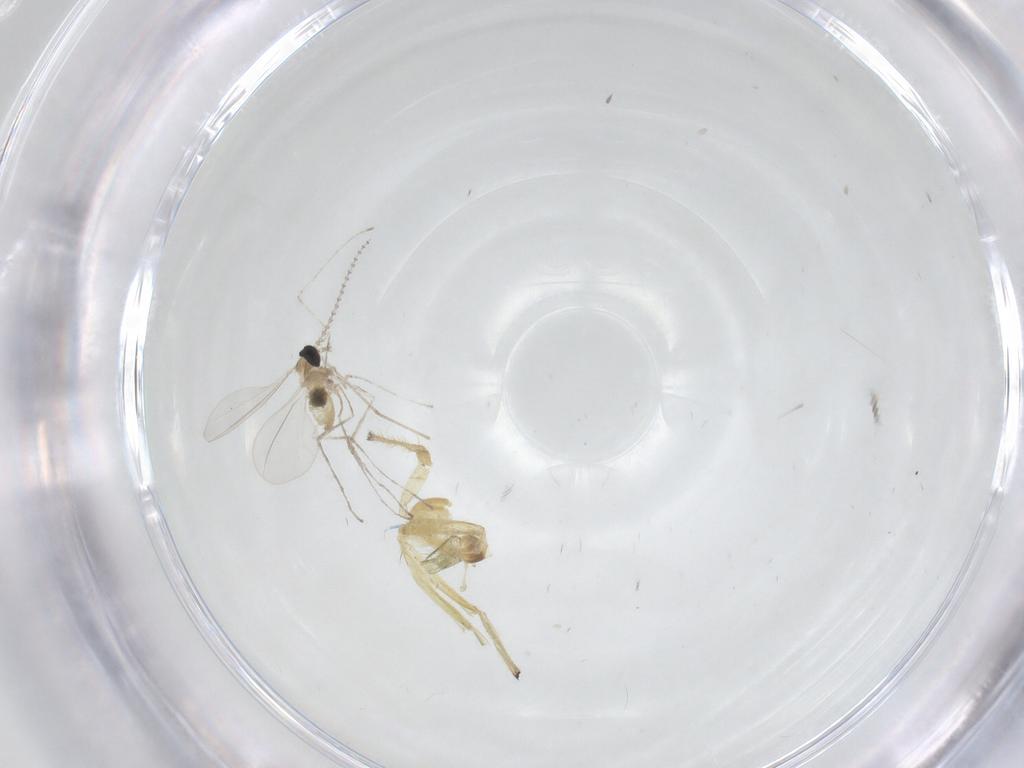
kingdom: Animalia
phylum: Arthropoda
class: Insecta
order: Diptera
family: Chironomidae
